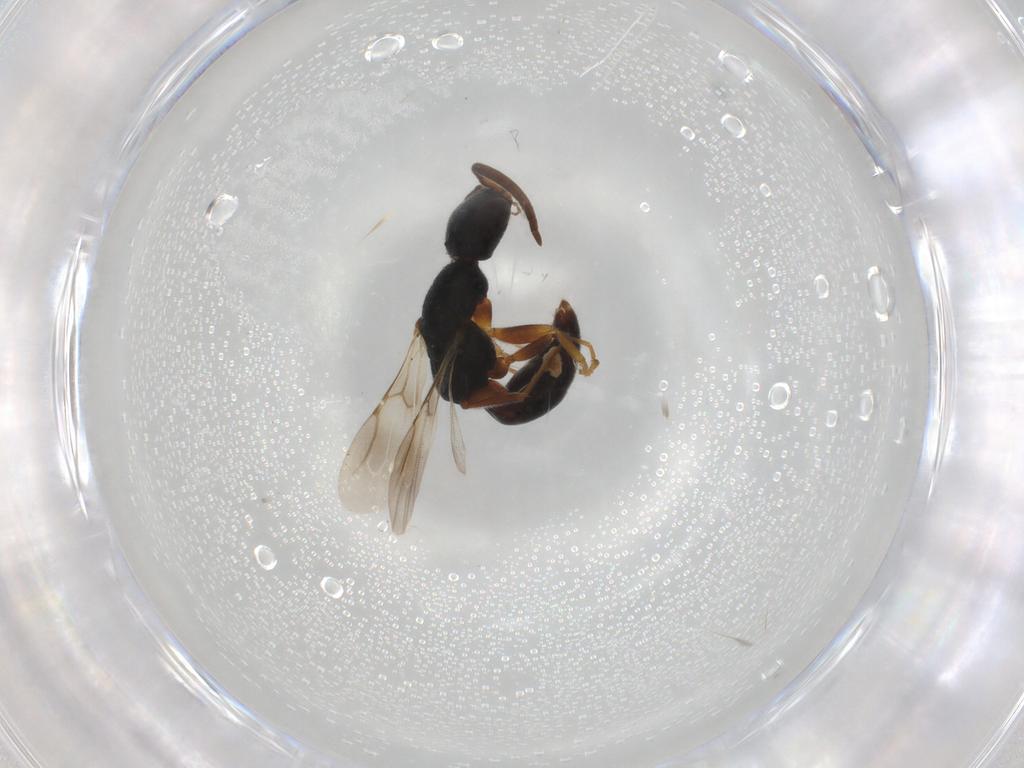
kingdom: Animalia
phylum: Arthropoda
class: Insecta
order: Hymenoptera
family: Bethylidae
